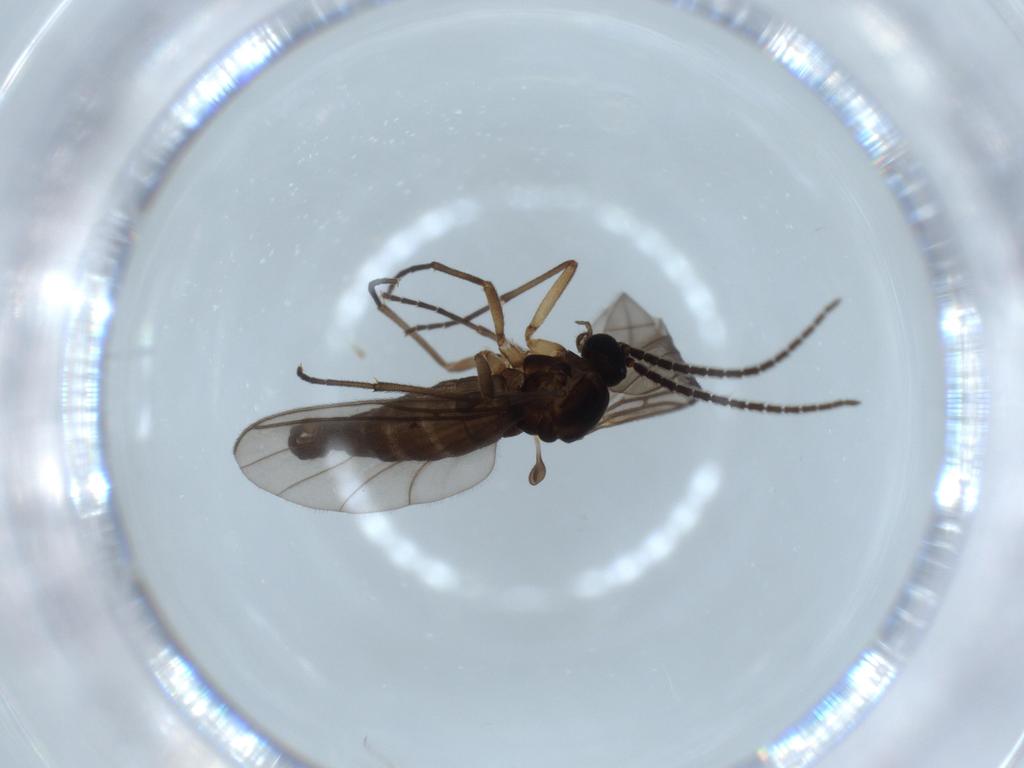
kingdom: Animalia
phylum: Arthropoda
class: Insecta
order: Diptera
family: Sciaridae
